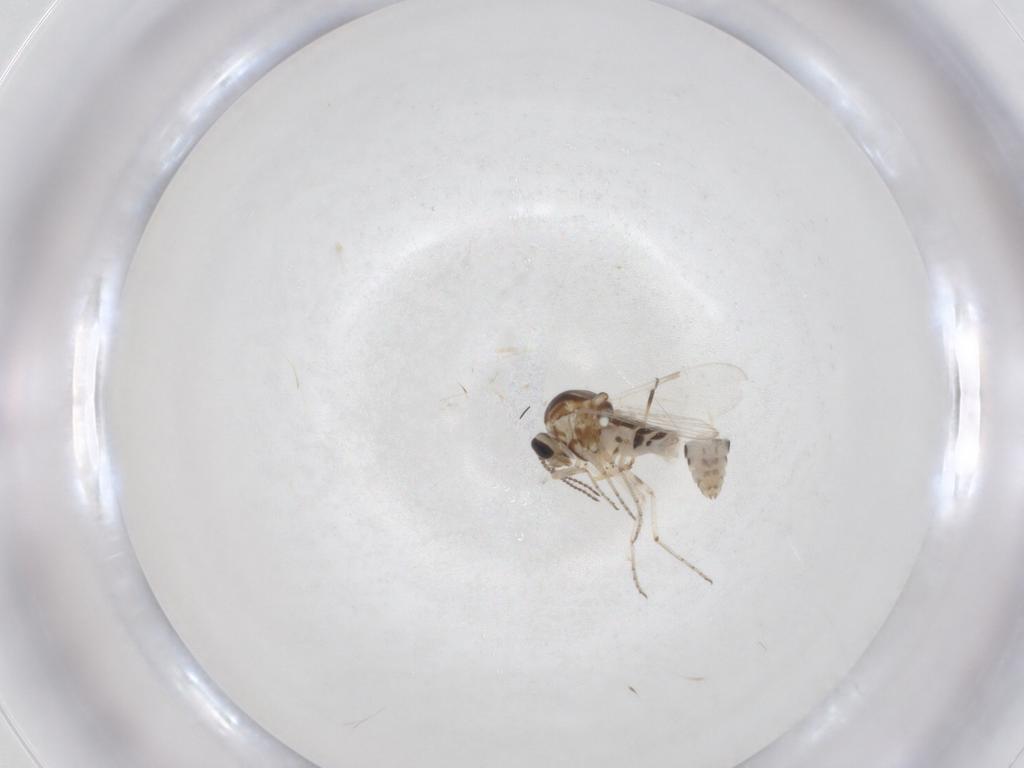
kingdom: Animalia
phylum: Arthropoda
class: Insecta
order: Diptera
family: Ceratopogonidae
